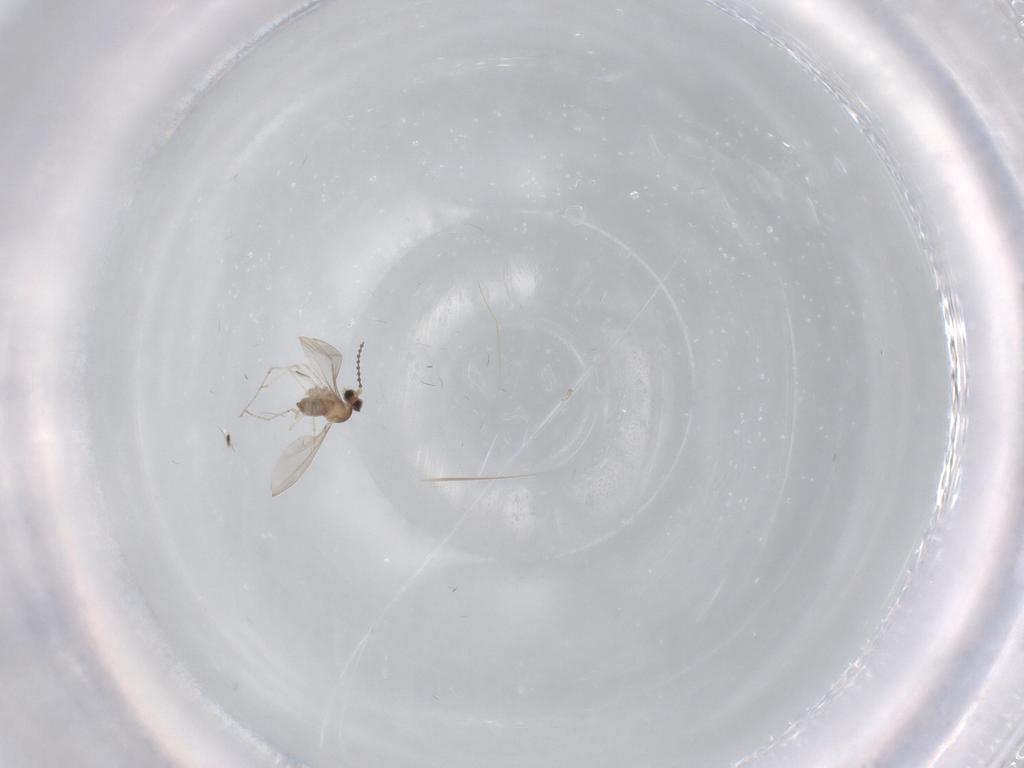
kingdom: Animalia
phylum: Arthropoda
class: Insecta
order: Diptera
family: Cecidomyiidae
